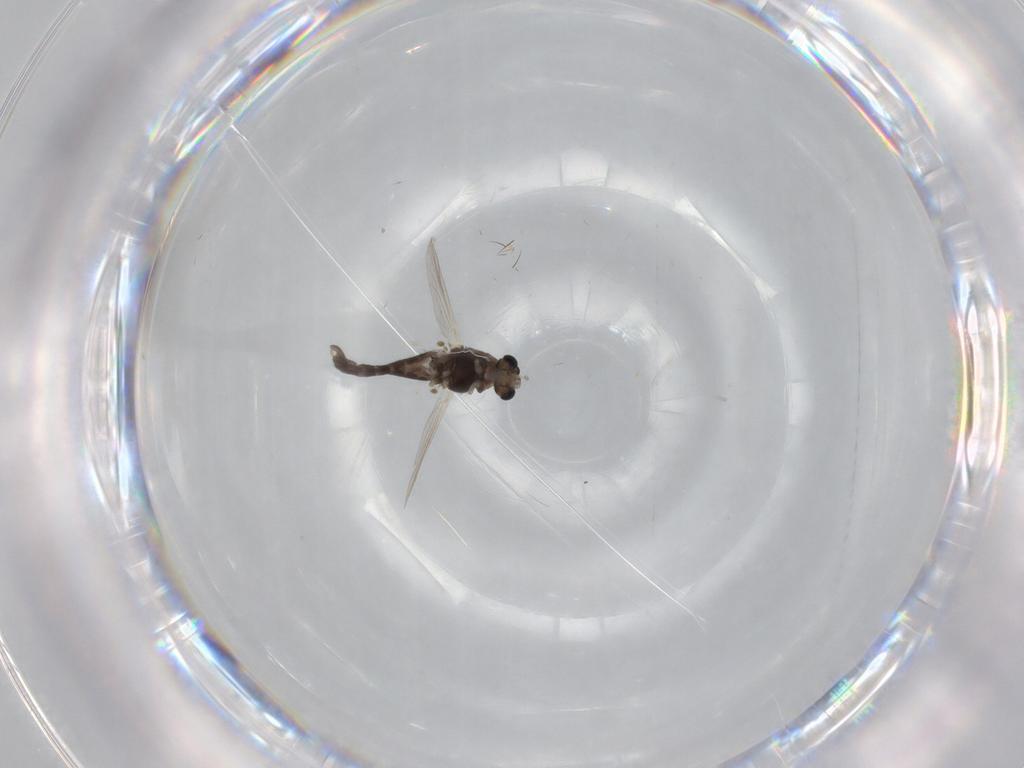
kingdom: Animalia
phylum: Arthropoda
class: Insecta
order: Diptera
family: Chironomidae
